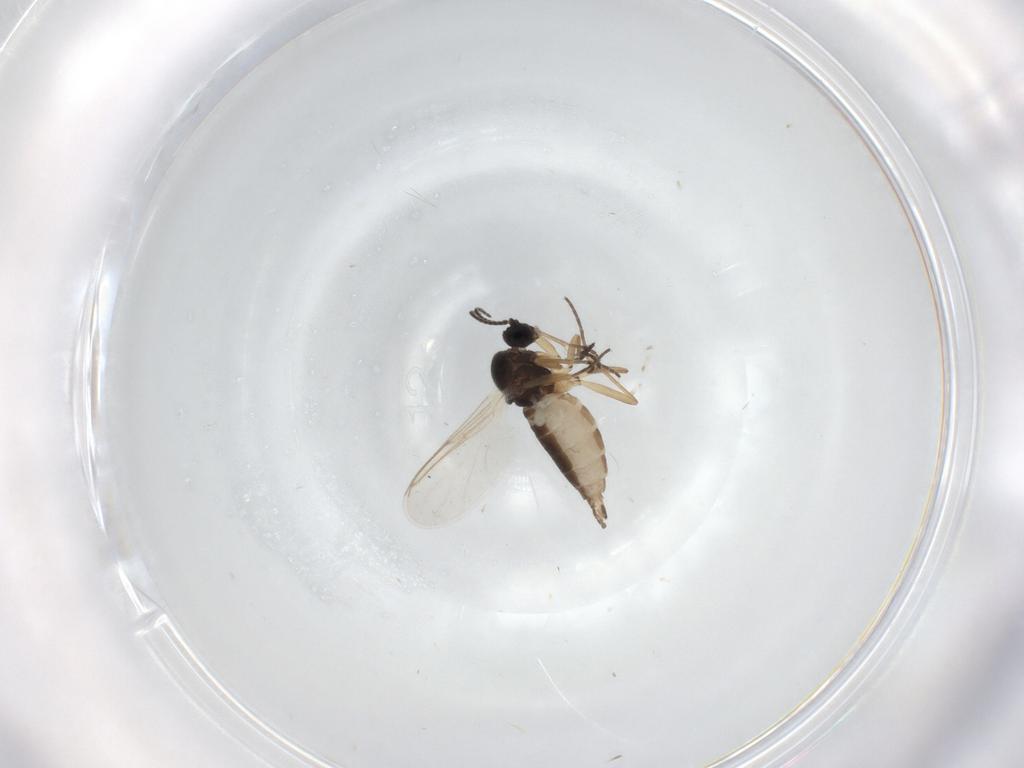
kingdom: Animalia
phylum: Arthropoda
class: Insecta
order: Diptera
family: Sciaridae
